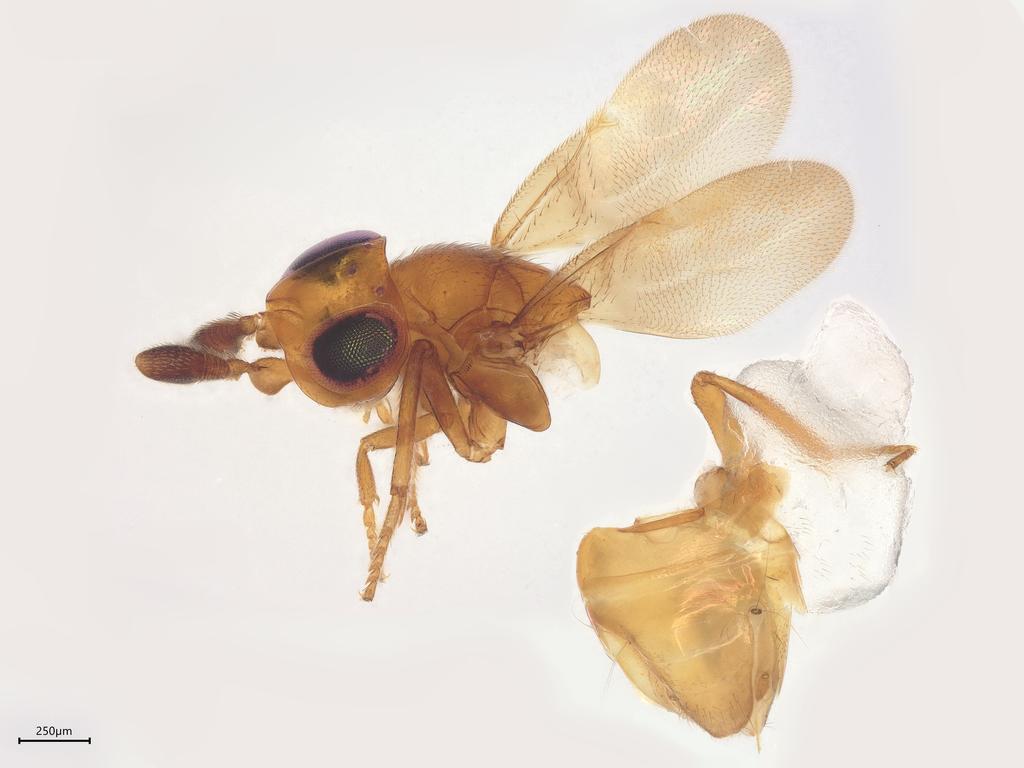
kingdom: Animalia
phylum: Arthropoda
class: Insecta
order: Hymenoptera
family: Encyrtidae
